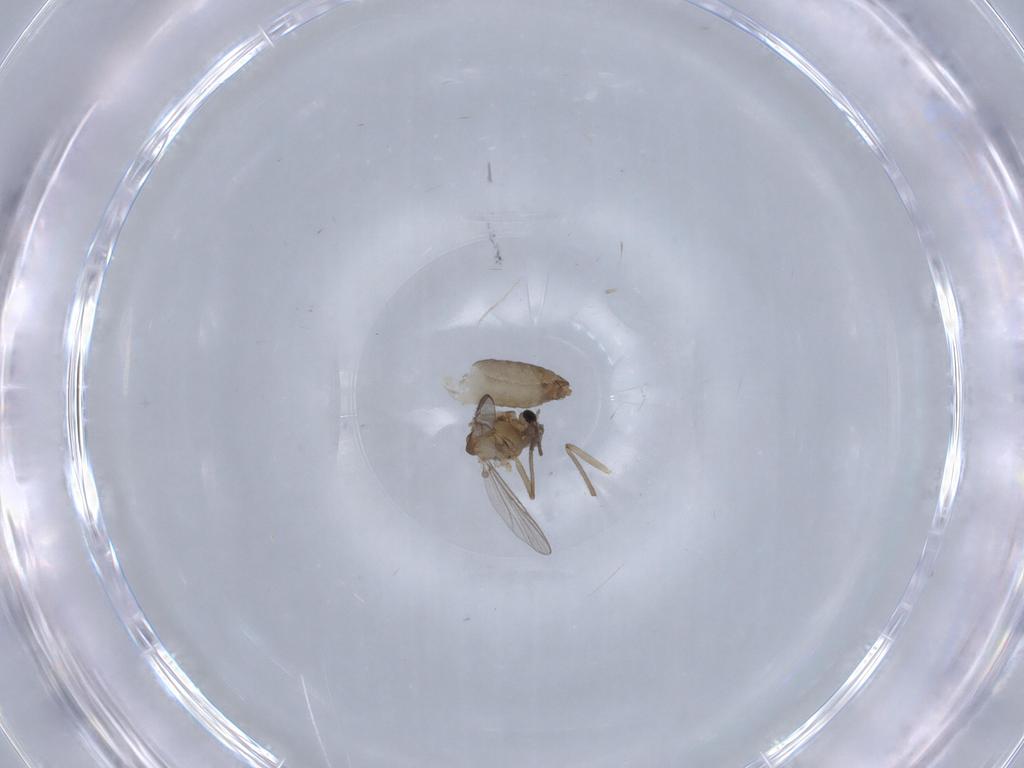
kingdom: Animalia
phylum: Arthropoda
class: Insecta
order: Diptera
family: Chironomidae
